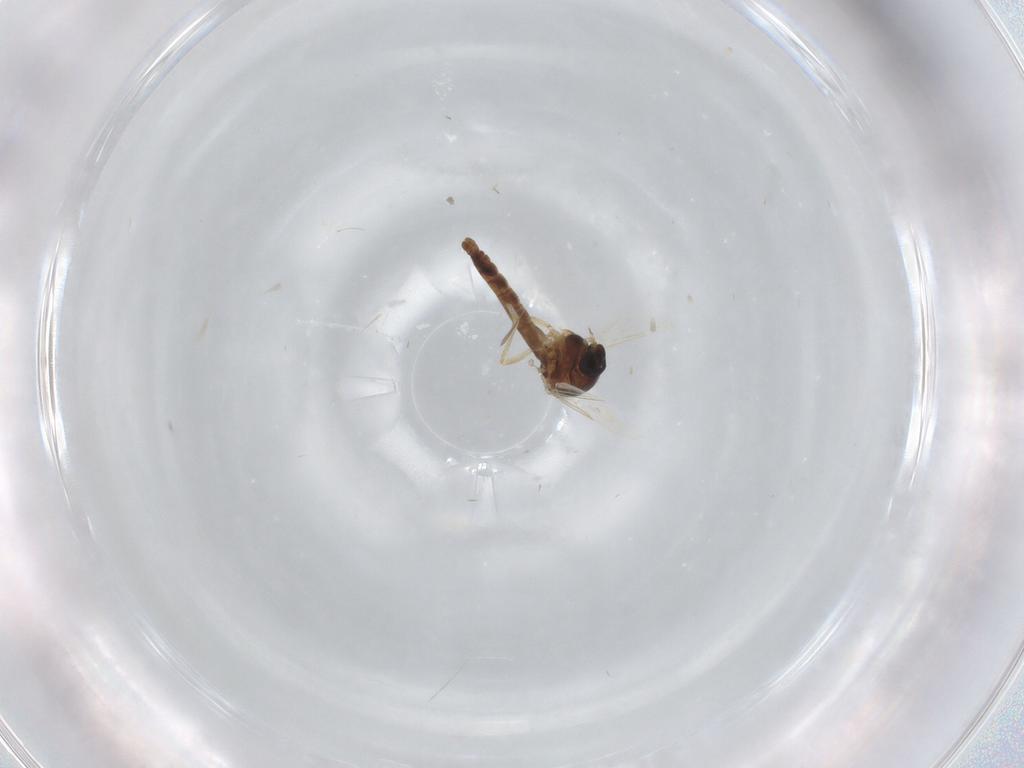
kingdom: Animalia
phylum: Arthropoda
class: Insecta
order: Diptera
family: Ceratopogonidae
